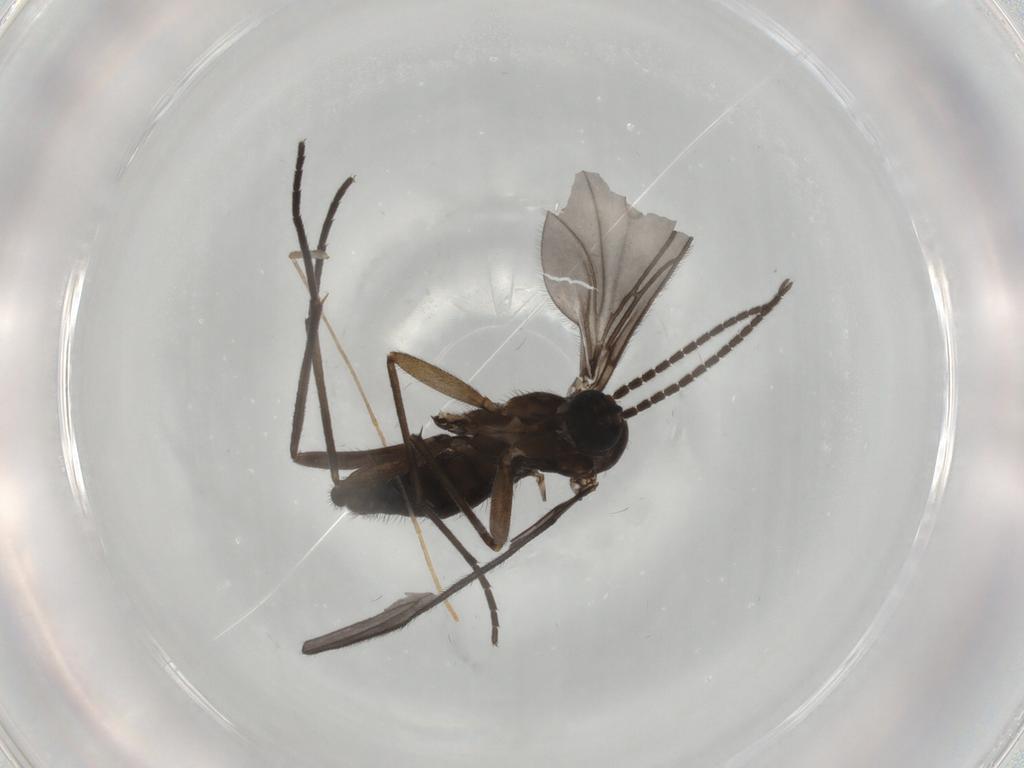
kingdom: Animalia
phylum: Arthropoda
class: Insecta
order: Diptera
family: Sciaridae
